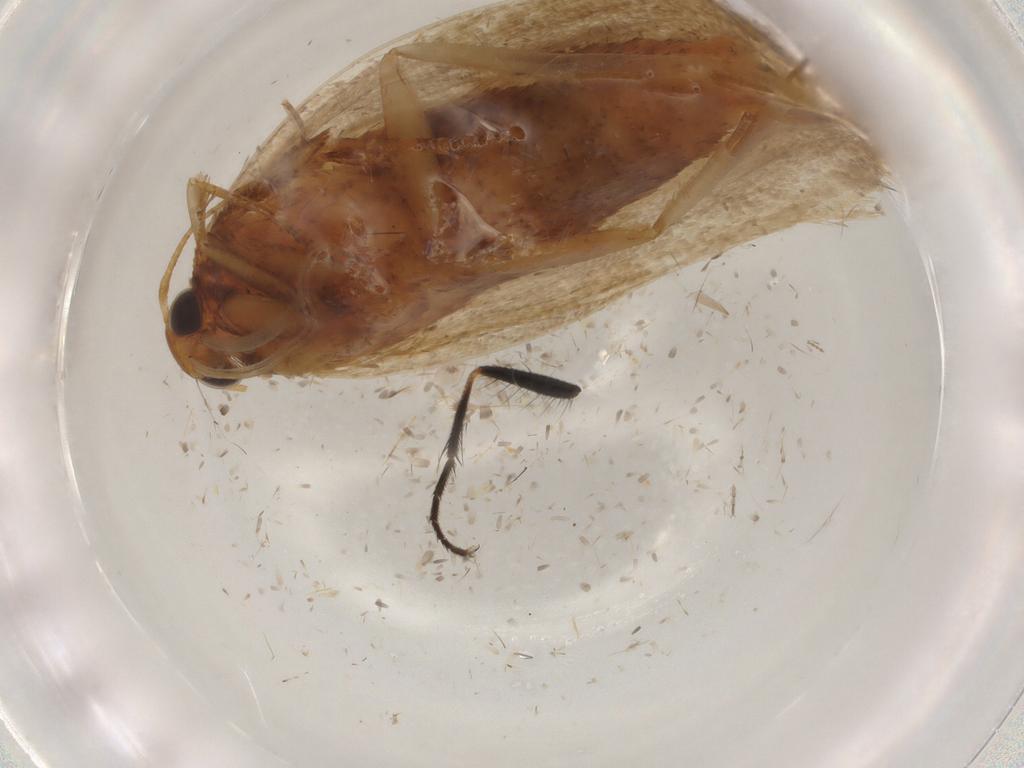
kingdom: Animalia
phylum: Arthropoda
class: Insecta
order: Lepidoptera
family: Gelechiidae
